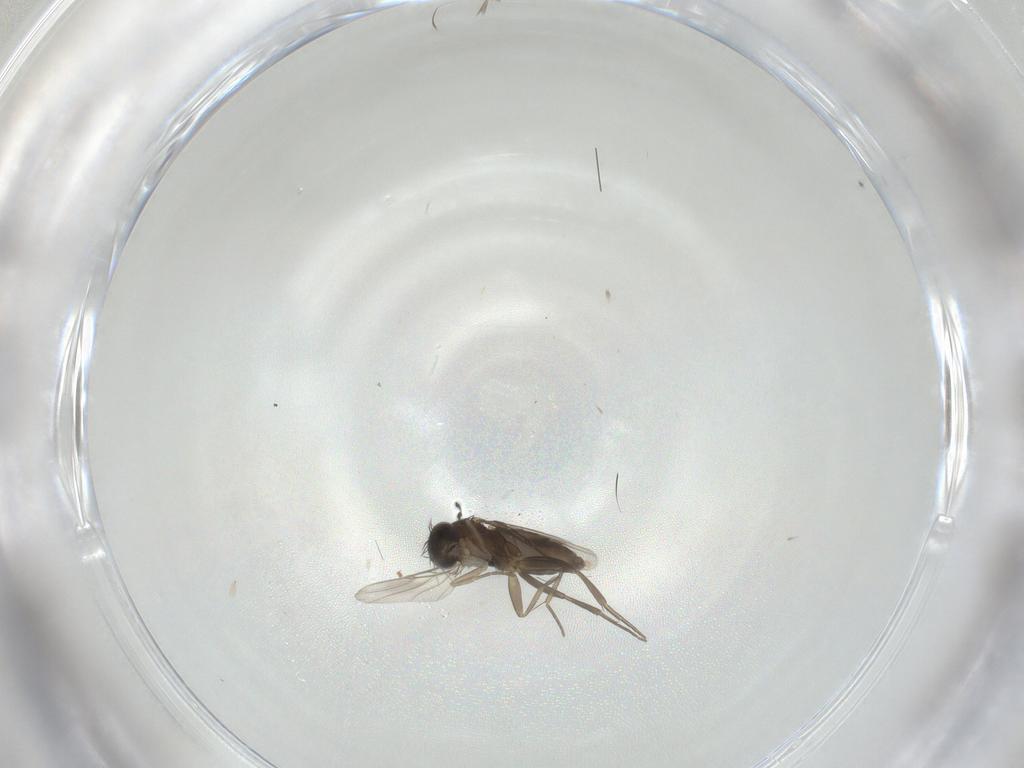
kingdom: Animalia
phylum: Arthropoda
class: Insecta
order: Diptera
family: Phoridae
